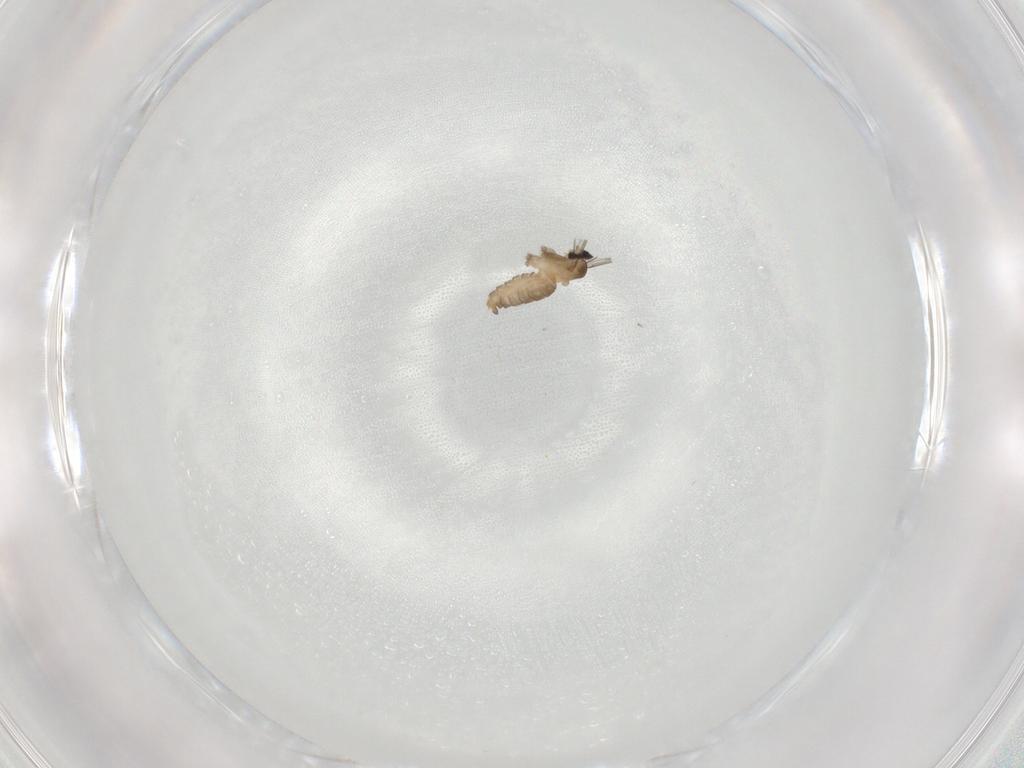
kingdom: Animalia
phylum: Arthropoda
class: Insecta
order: Diptera
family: Cecidomyiidae
